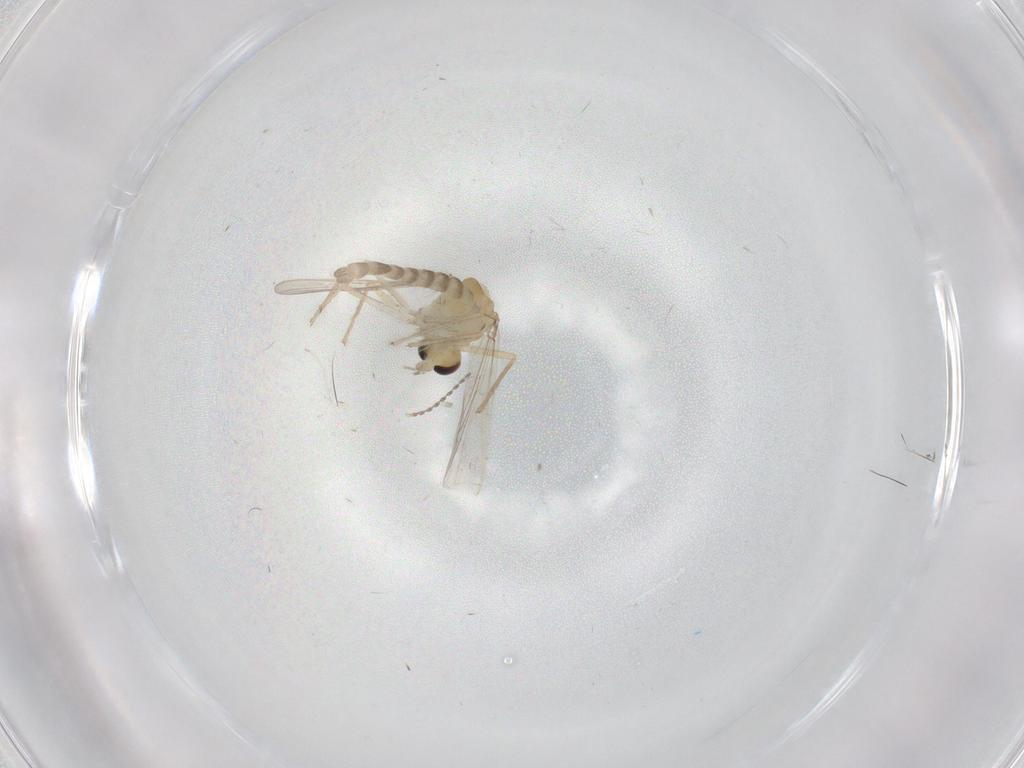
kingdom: Animalia
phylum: Arthropoda
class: Insecta
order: Diptera
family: Chironomidae
